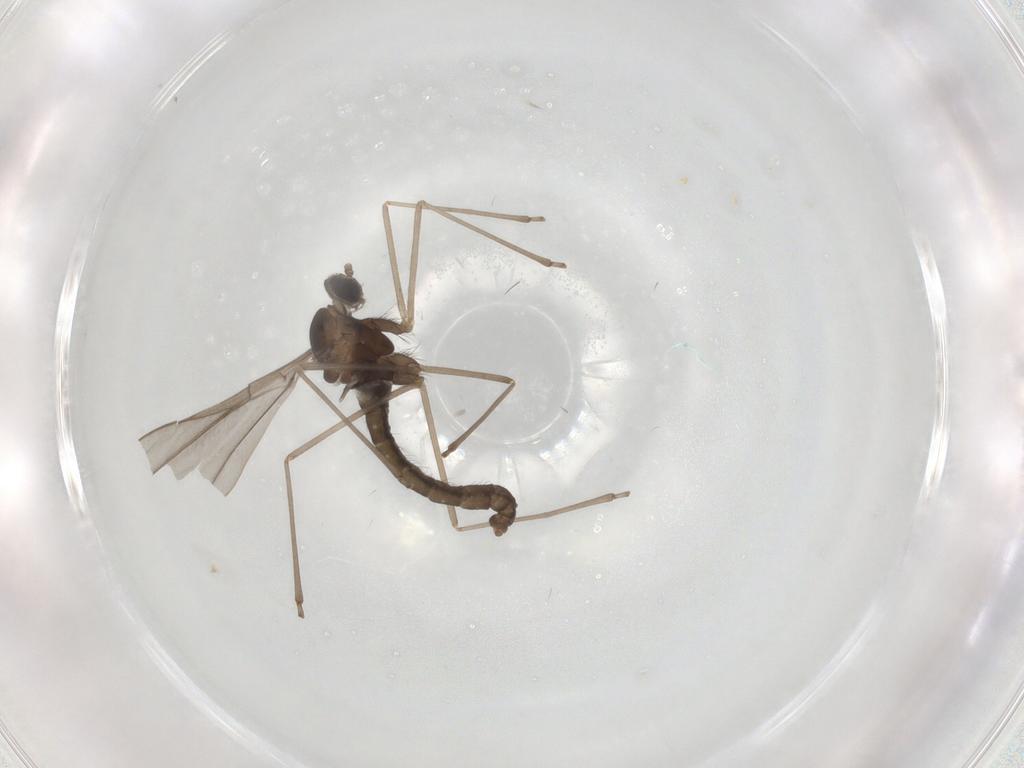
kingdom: Animalia
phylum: Arthropoda
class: Insecta
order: Diptera
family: Cecidomyiidae
